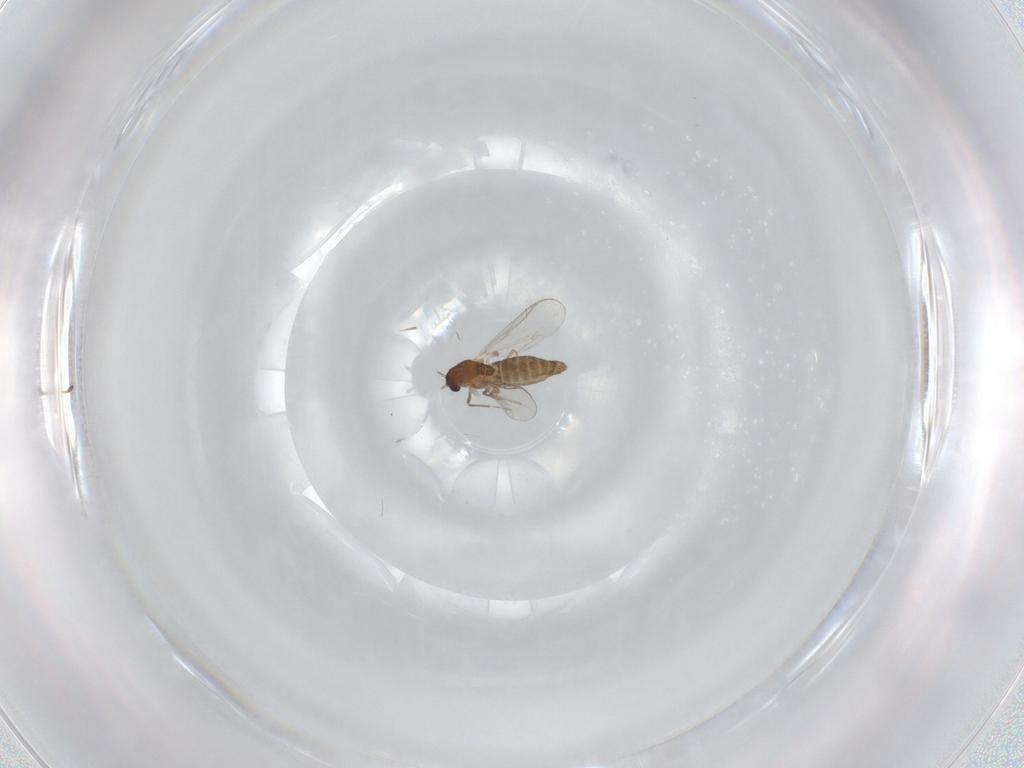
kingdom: Animalia
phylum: Arthropoda
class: Insecta
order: Diptera
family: Chironomidae
